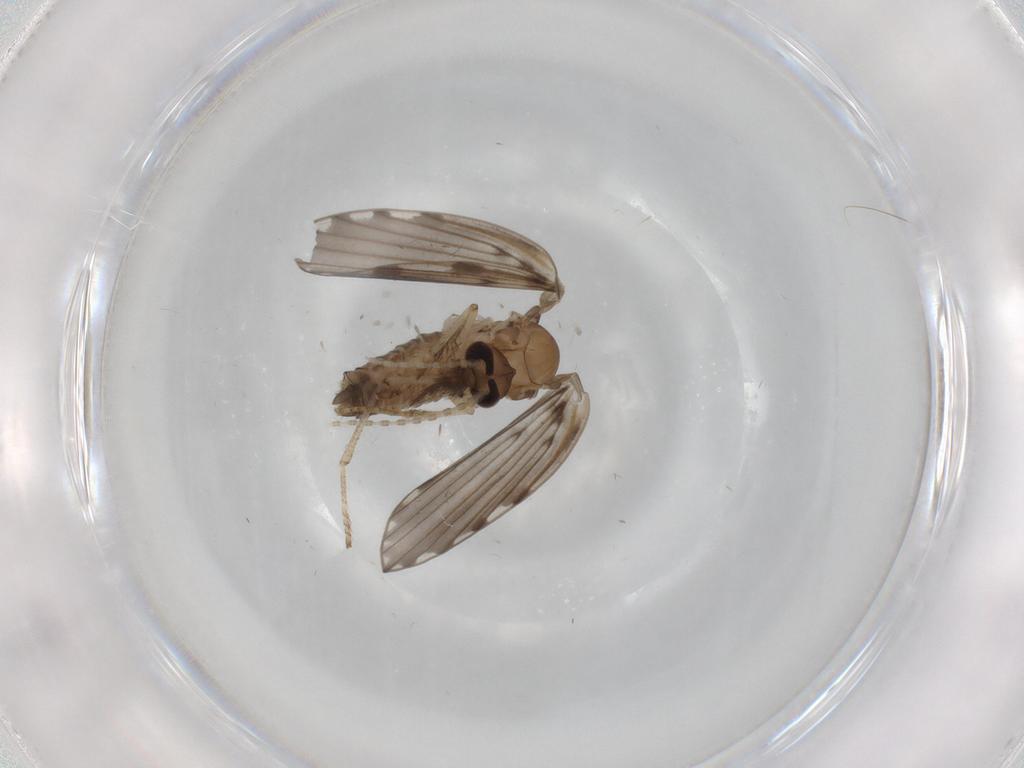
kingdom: Animalia
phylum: Arthropoda
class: Insecta
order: Diptera
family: Psychodidae
